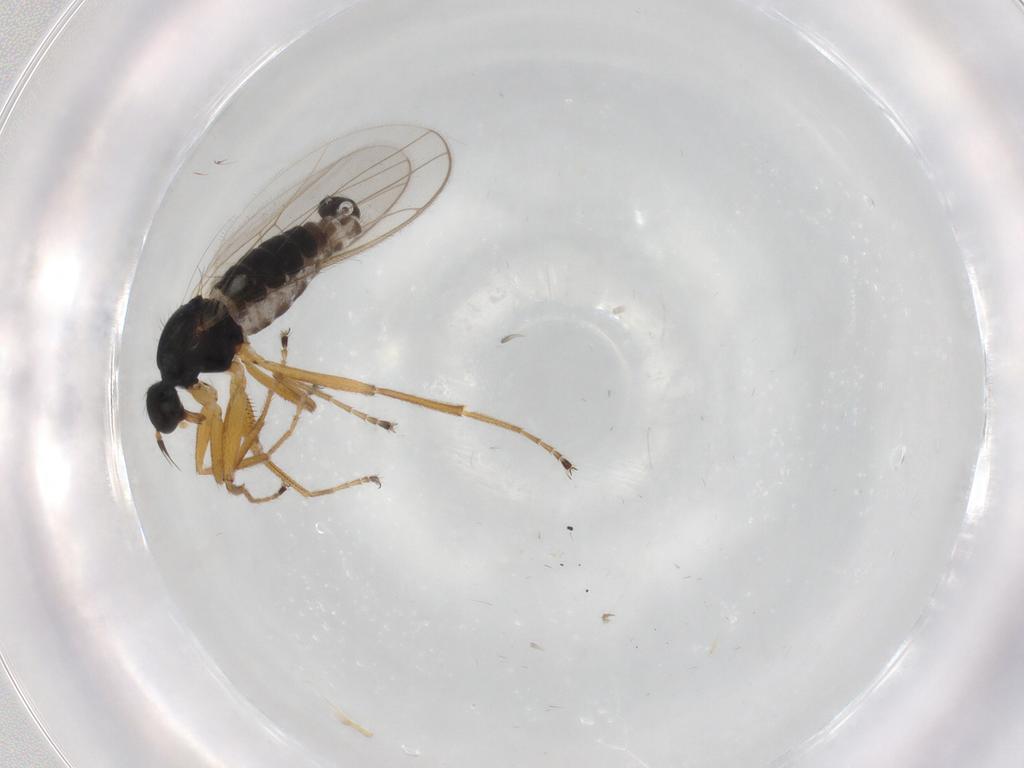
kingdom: Animalia
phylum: Arthropoda
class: Insecta
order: Diptera
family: Hybotidae
